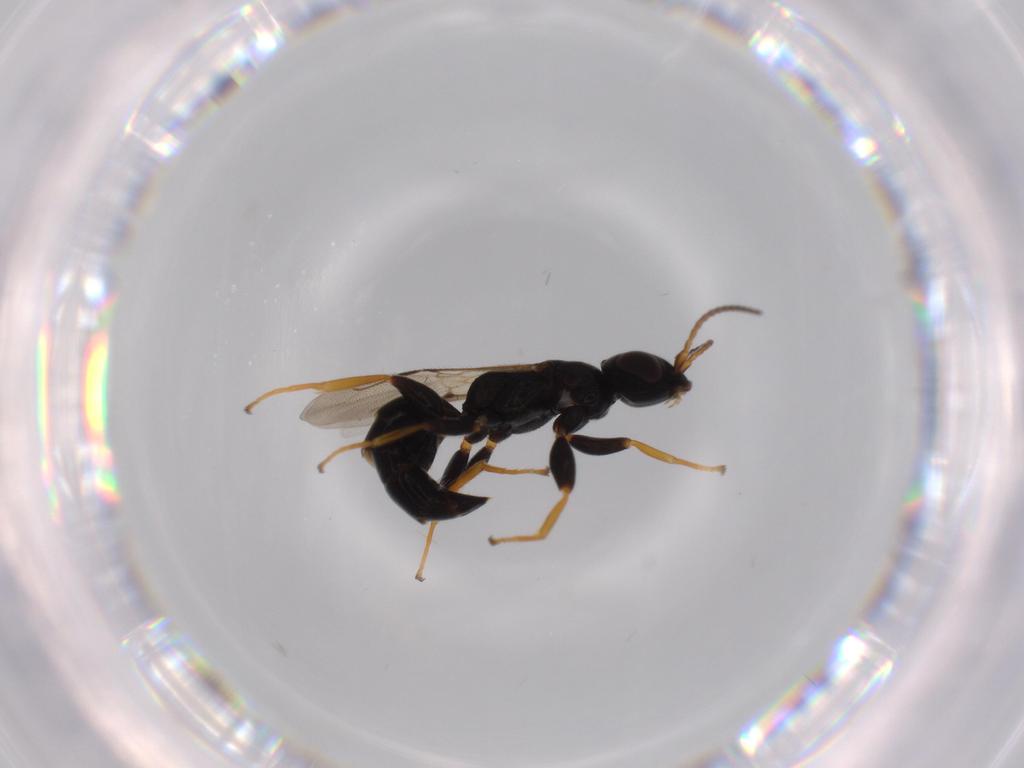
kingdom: Animalia
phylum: Arthropoda
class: Insecta
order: Hymenoptera
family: Bethylidae
